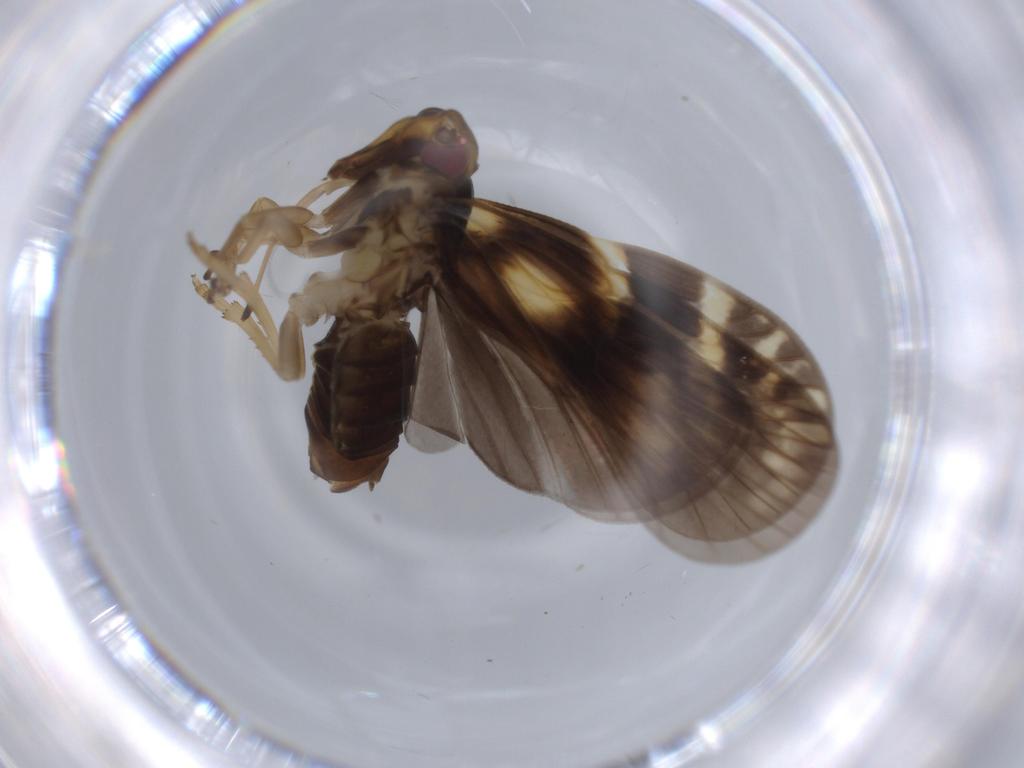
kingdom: Animalia
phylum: Arthropoda
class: Insecta
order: Hemiptera
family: Cixiidae
